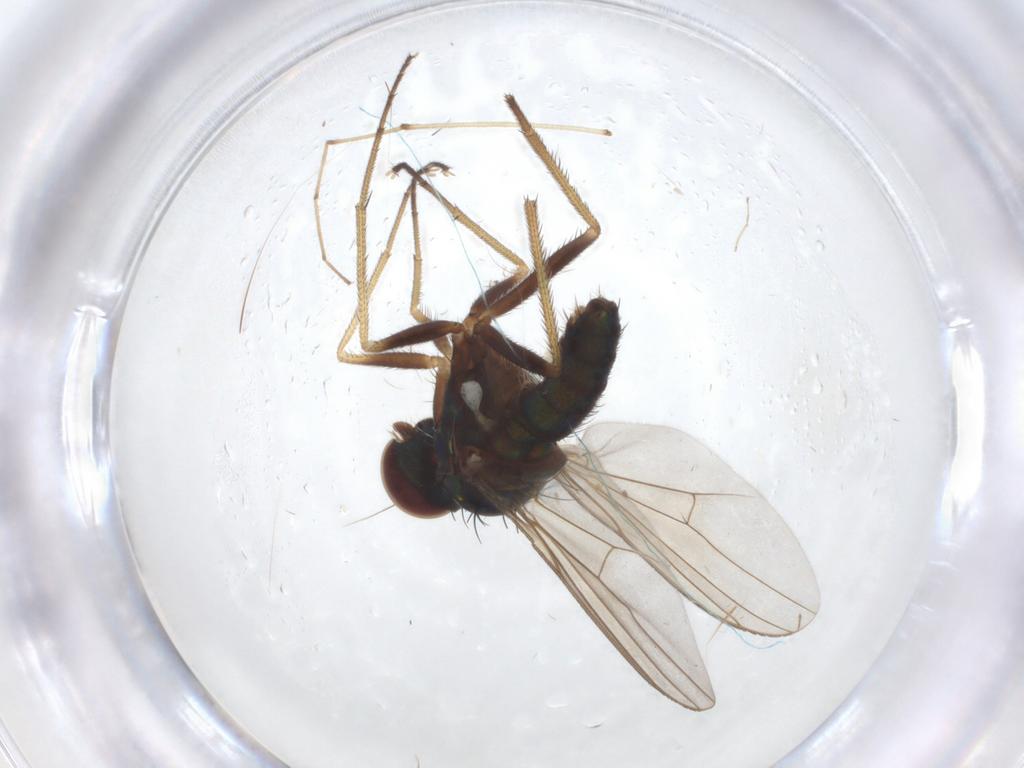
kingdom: Animalia
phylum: Arthropoda
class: Insecta
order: Diptera
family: Dolichopodidae
